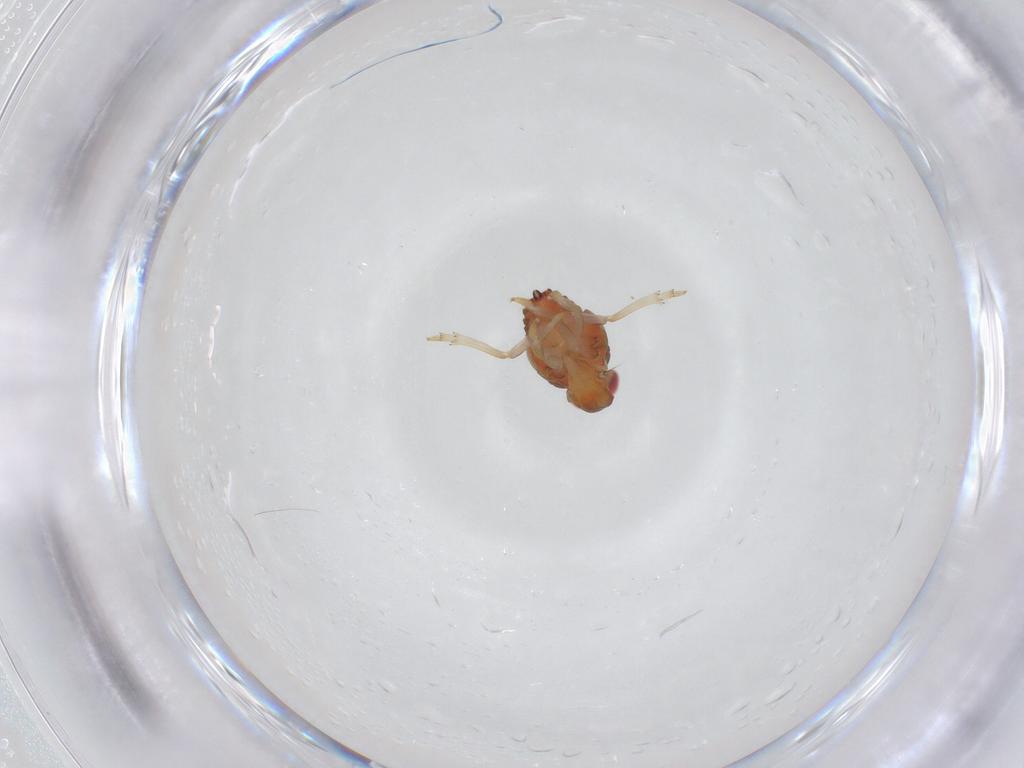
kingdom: Animalia
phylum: Arthropoda
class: Insecta
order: Hemiptera
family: Issidae
